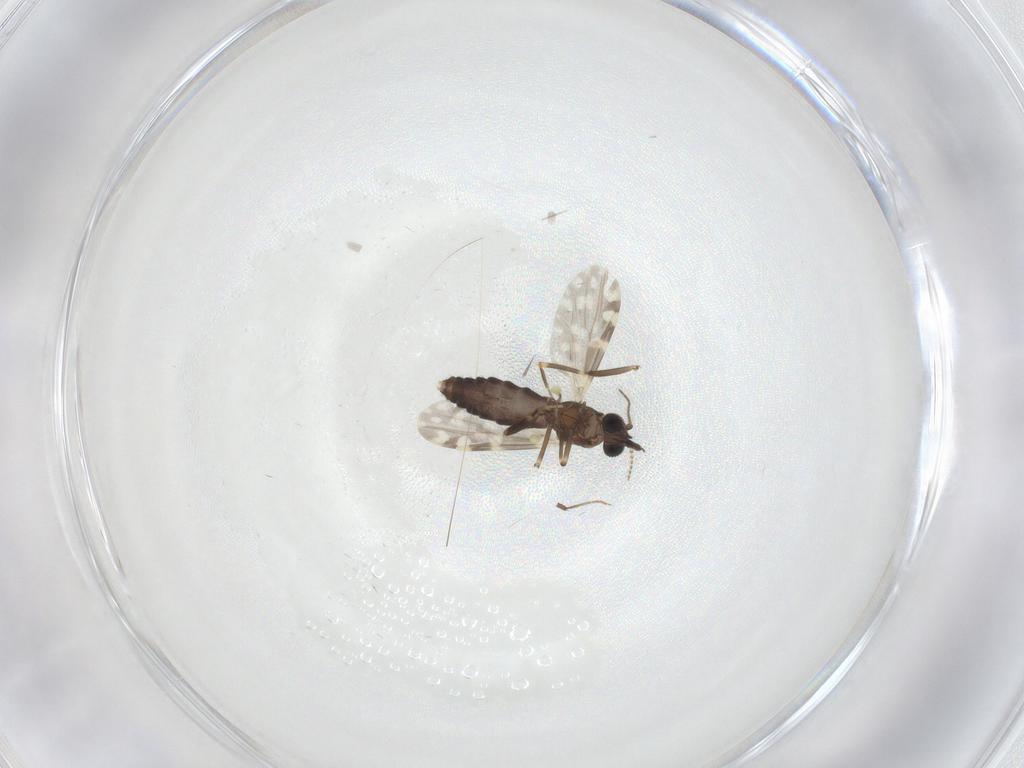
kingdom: Animalia
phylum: Arthropoda
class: Insecta
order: Diptera
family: Ceratopogonidae
